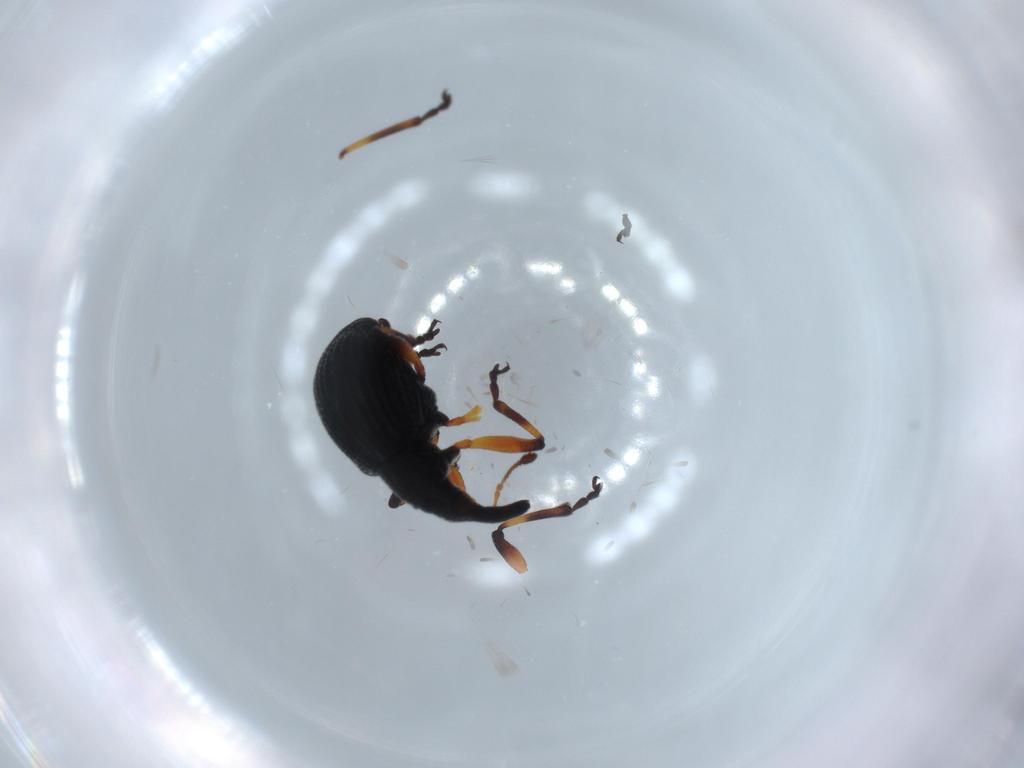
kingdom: Animalia
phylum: Arthropoda
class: Insecta
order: Coleoptera
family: Brentidae
